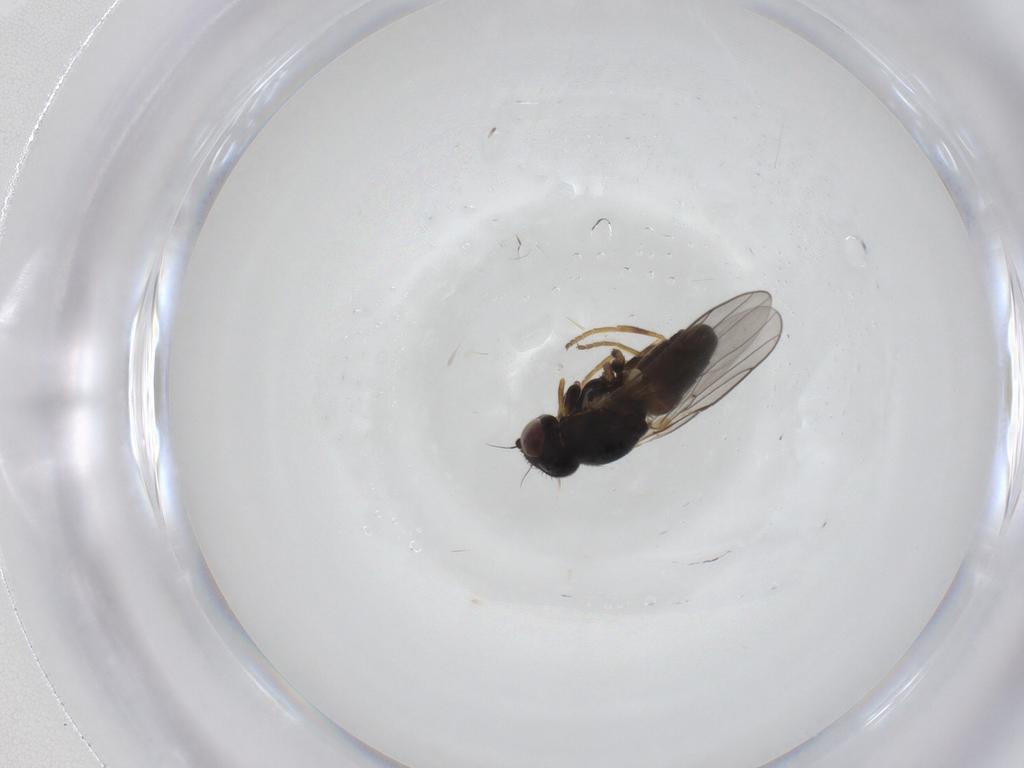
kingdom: Animalia
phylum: Arthropoda
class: Insecta
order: Diptera
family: Chloropidae
